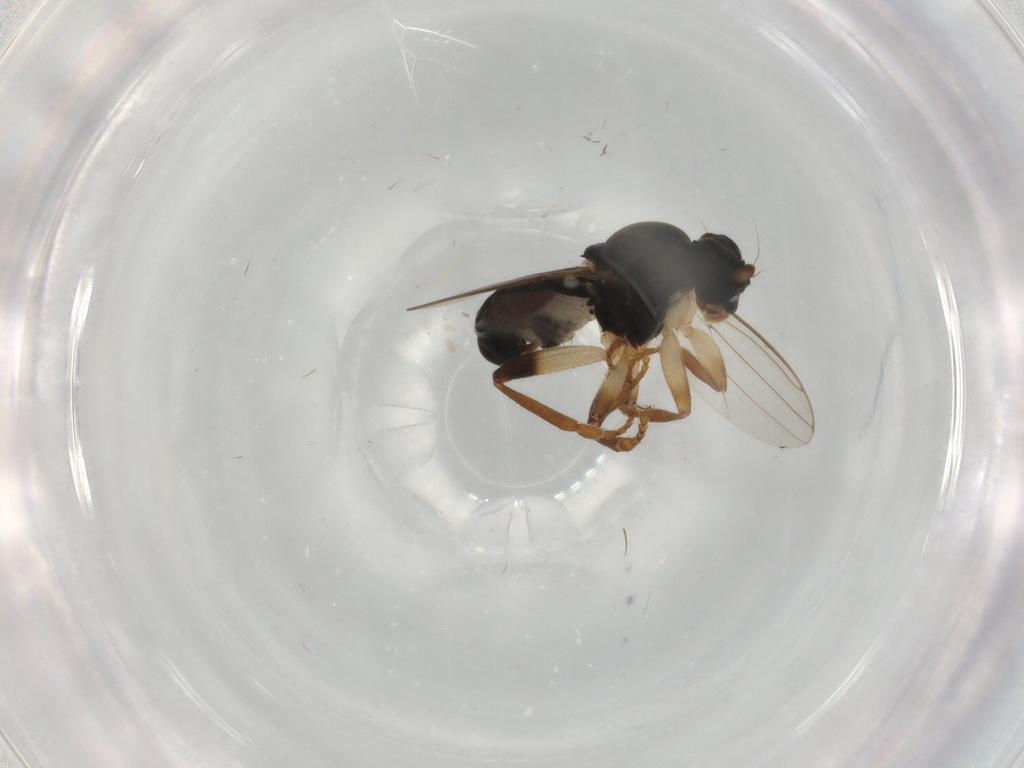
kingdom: Animalia
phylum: Arthropoda
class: Insecta
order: Diptera
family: Sphaeroceridae
